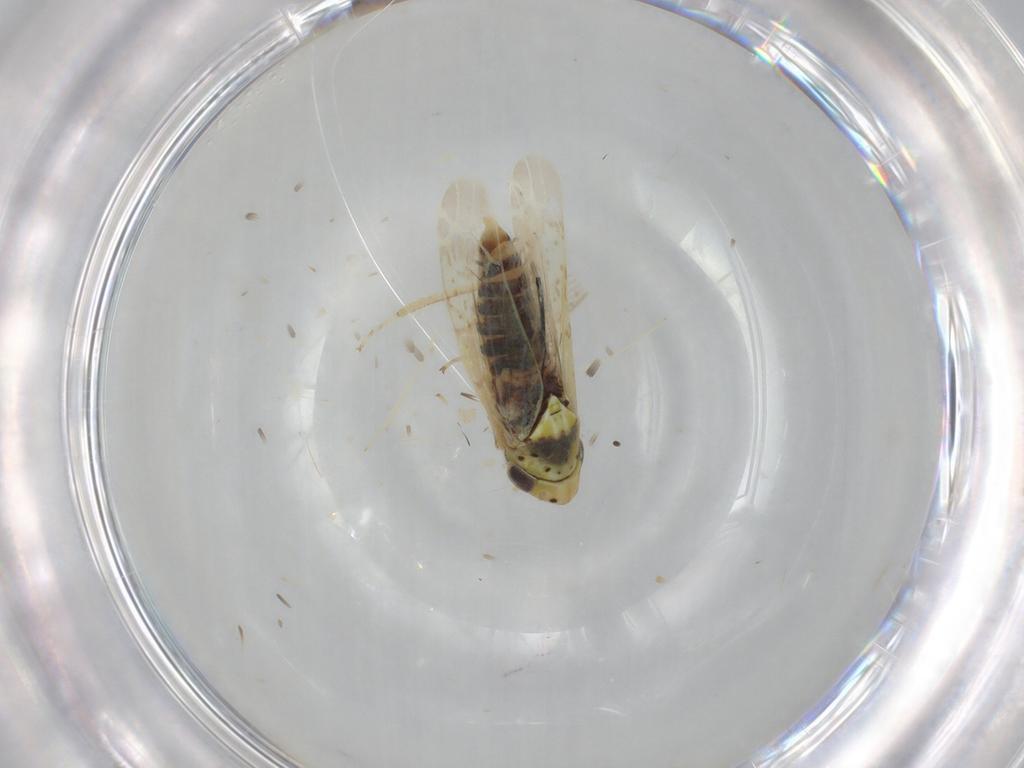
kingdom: Animalia
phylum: Arthropoda
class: Insecta
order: Hemiptera
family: Aleyrodidae
